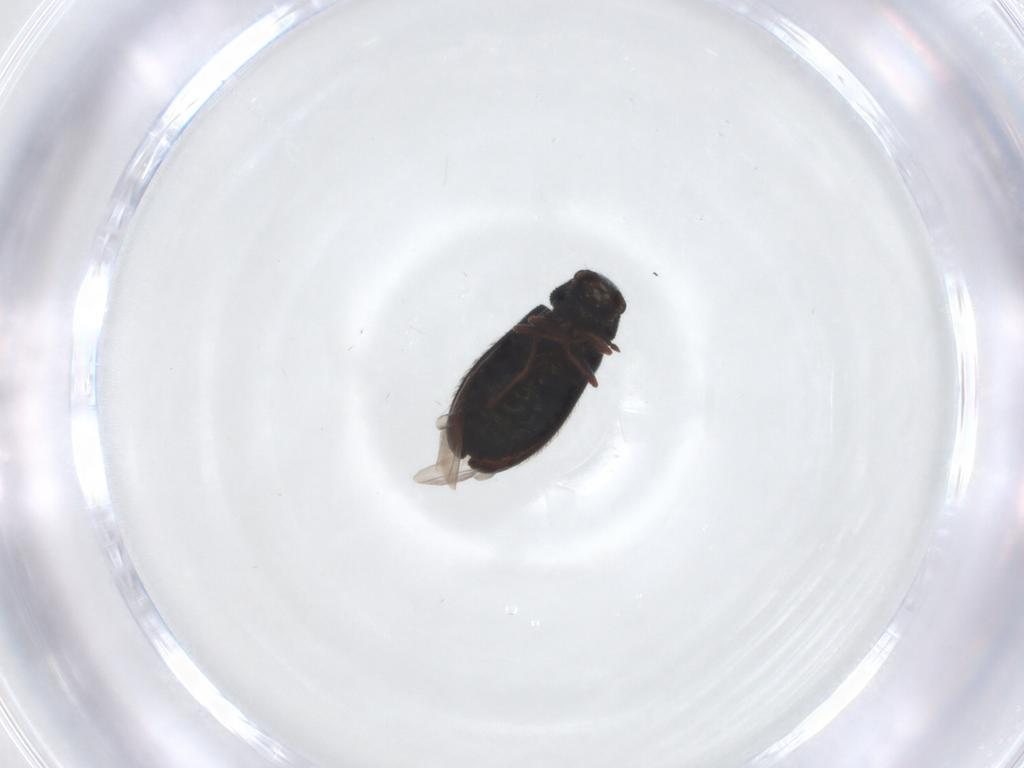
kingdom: Animalia
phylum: Arthropoda
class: Insecta
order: Coleoptera
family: Melyridae
